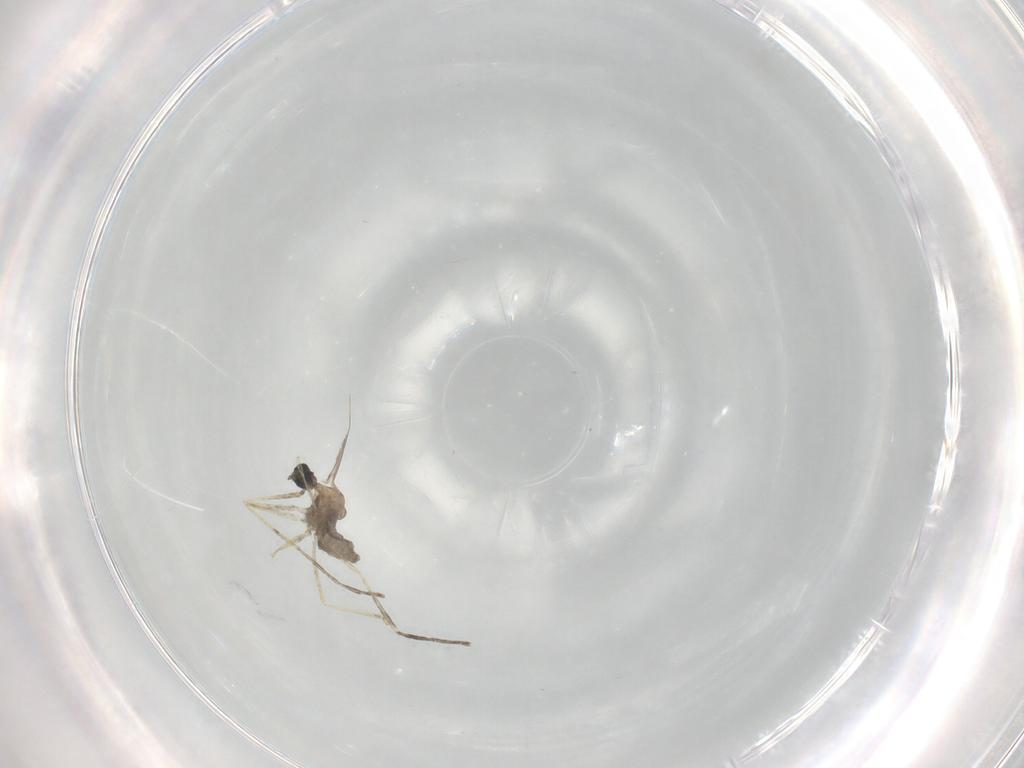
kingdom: Animalia
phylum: Arthropoda
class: Insecta
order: Diptera
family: Cecidomyiidae
